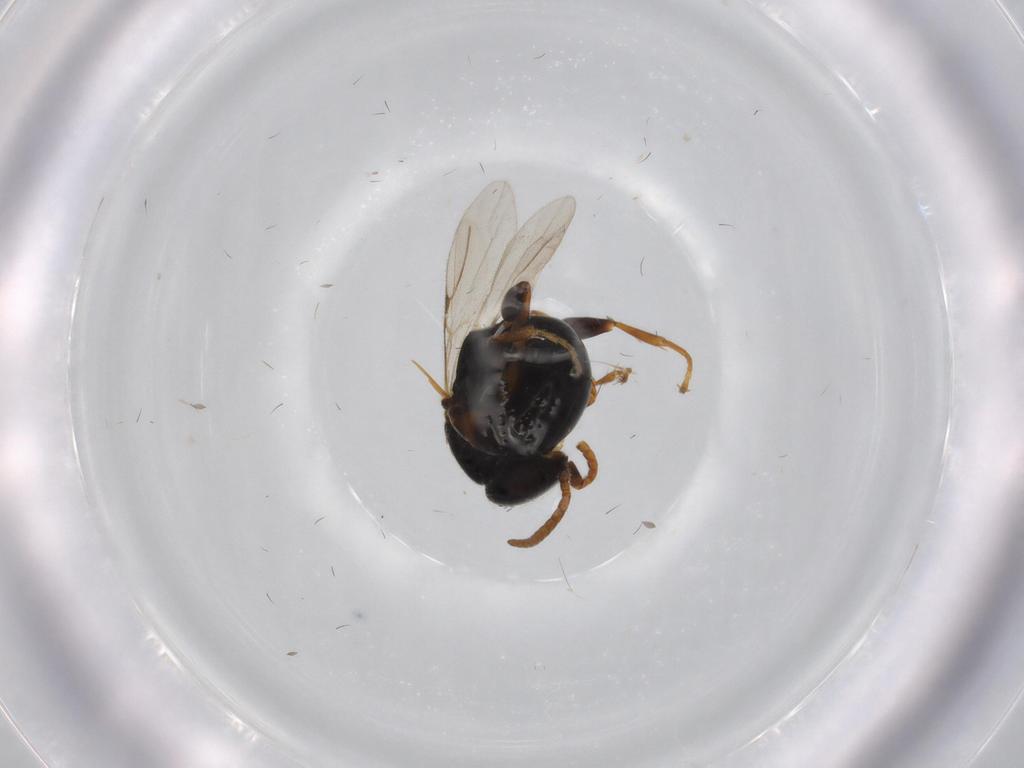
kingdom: Animalia
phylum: Arthropoda
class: Insecta
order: Hymenoptera
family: Bethylidae
